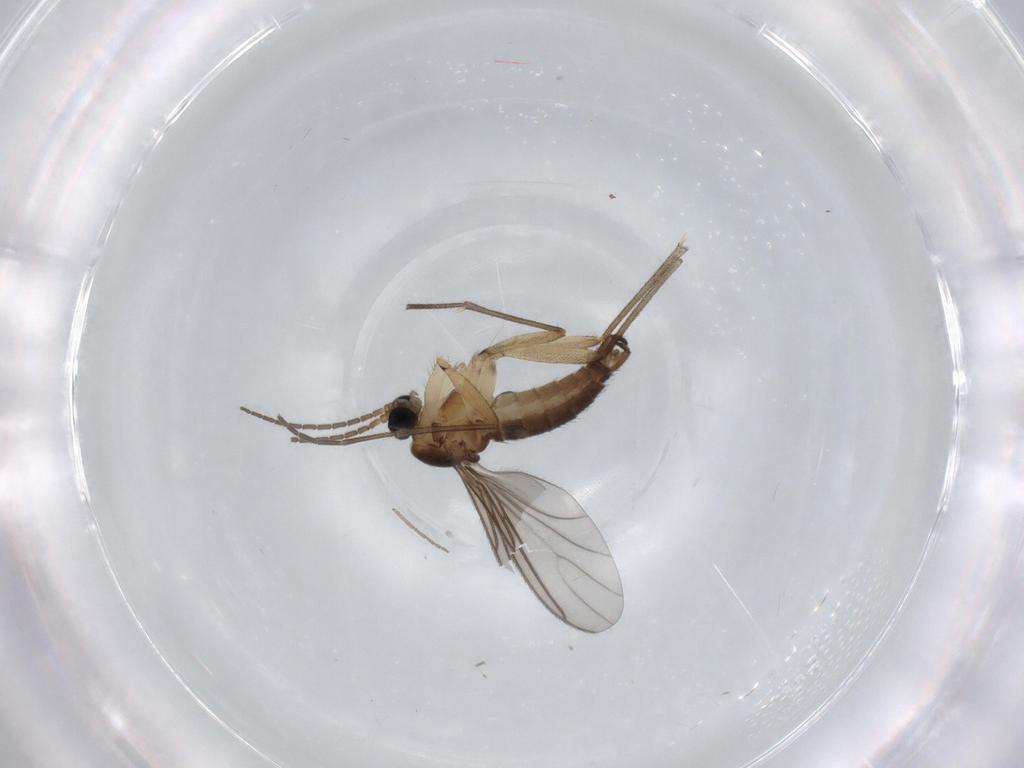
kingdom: Animalia
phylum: Arthropoda
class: Insecta
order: Diptera
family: Sciaridae
